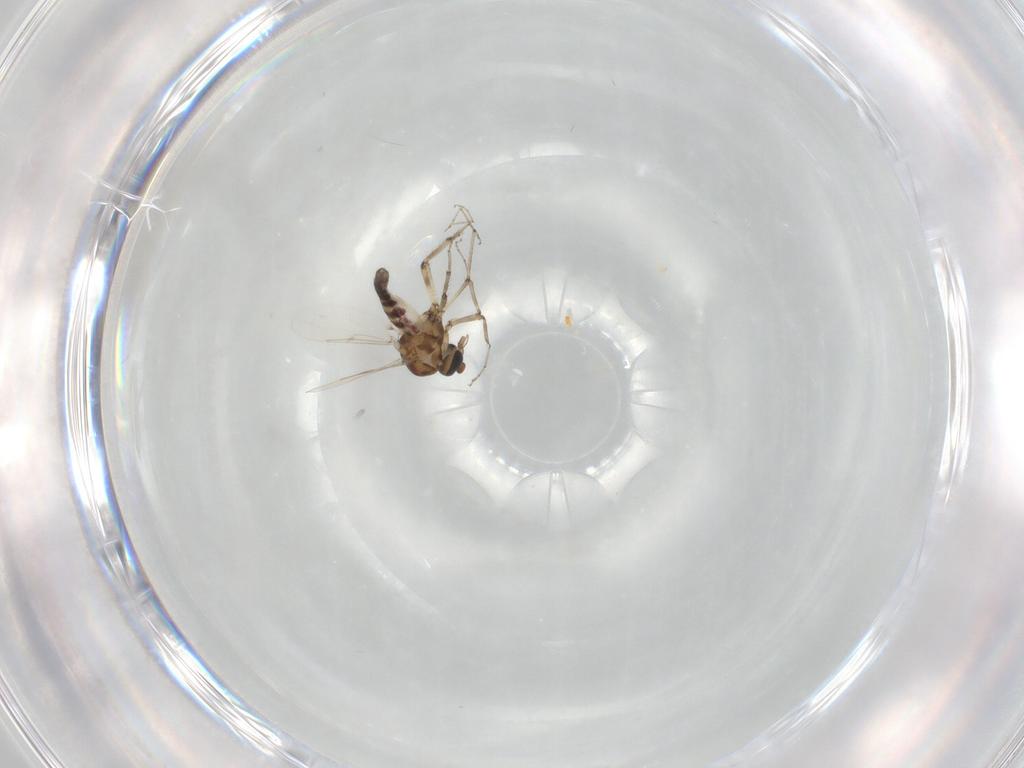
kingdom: Animalia
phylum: Arthropoda
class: Insecta
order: Diptera
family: Ceratopogonidae
